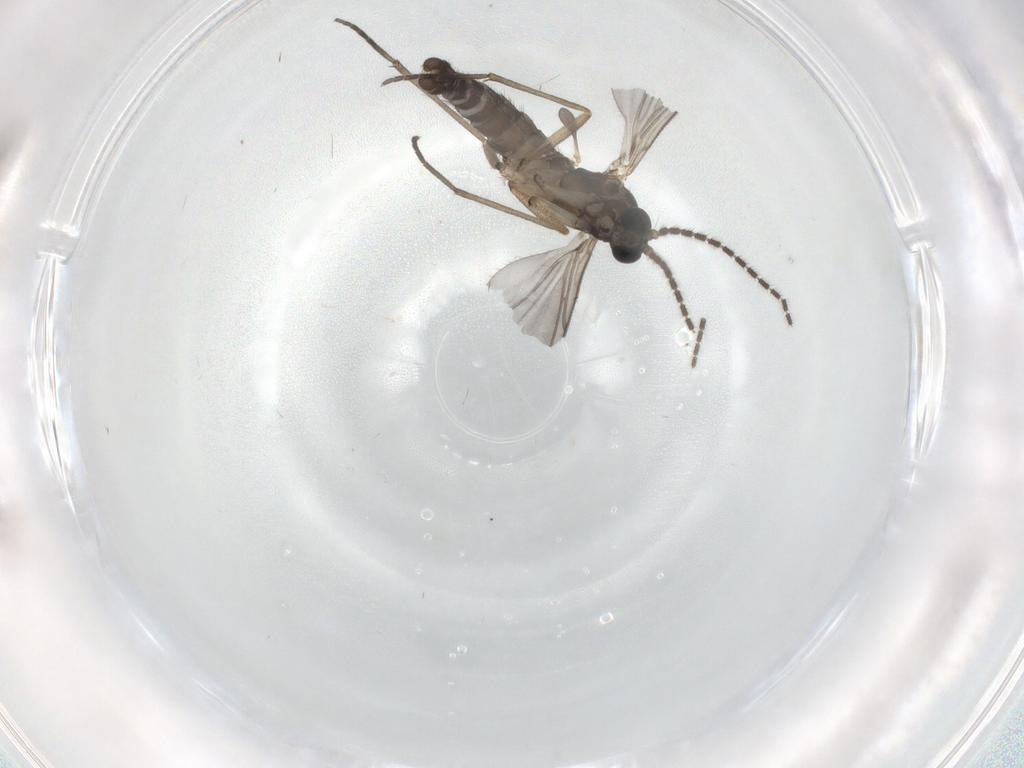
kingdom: Animalia
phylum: Arthropoda
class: Insecta
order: Diptera
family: Sciaridae
